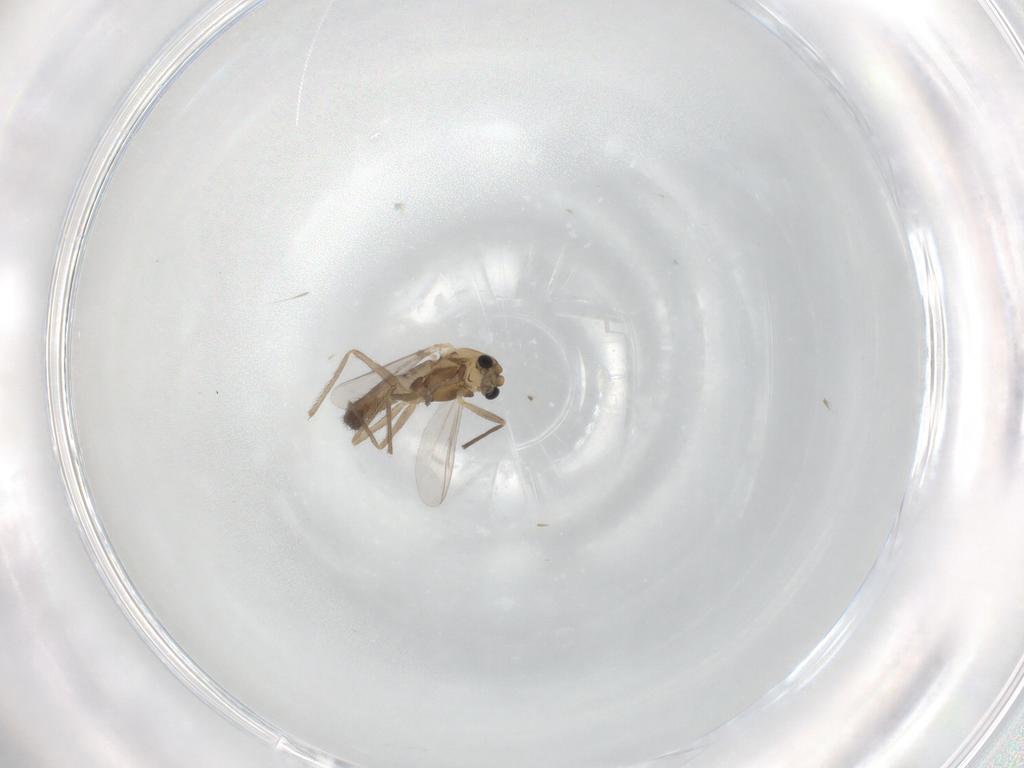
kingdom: Animalia
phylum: Arthropoda
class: Insecta
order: Diptera
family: Chironomidae
